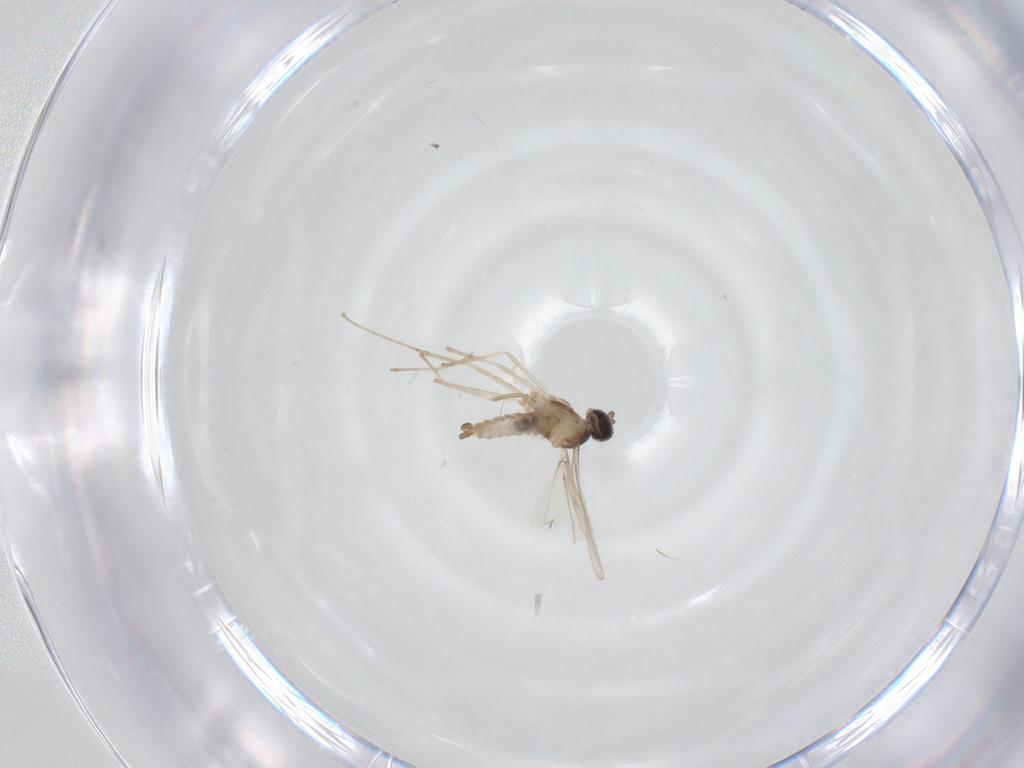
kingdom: Animalia
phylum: Arthropoda
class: Insecta
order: Diptera
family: Cecidomyiidae
